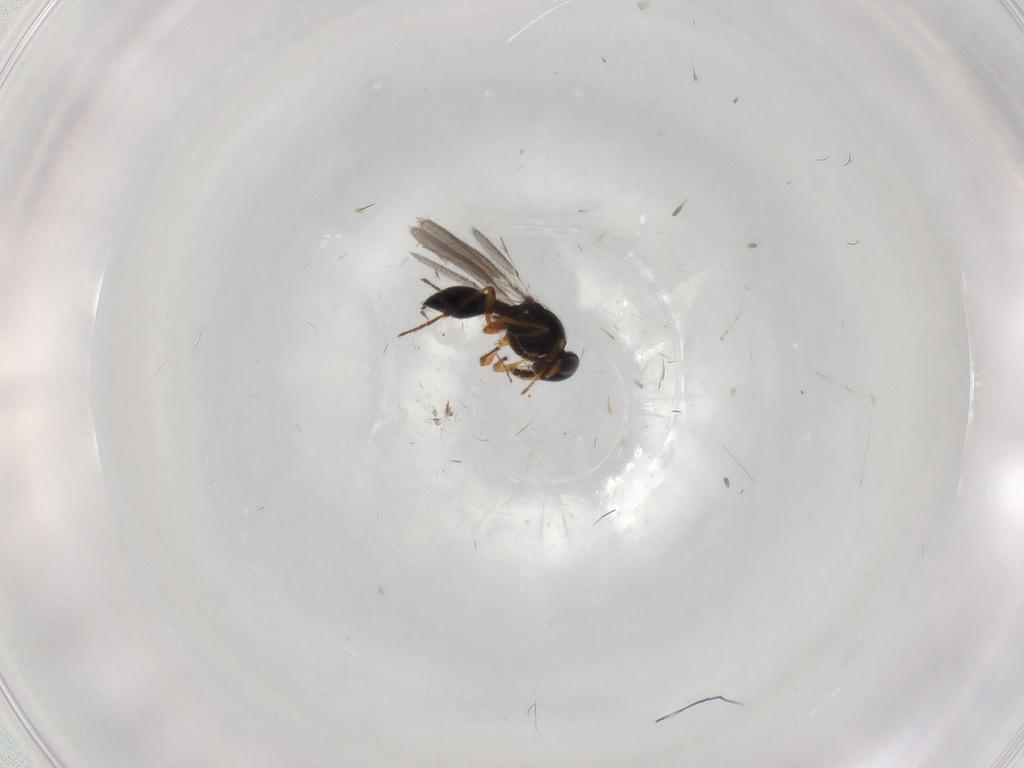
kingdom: Animalia
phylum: Arthropoda
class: Insecta
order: Hymenoptera
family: Platygastridae
